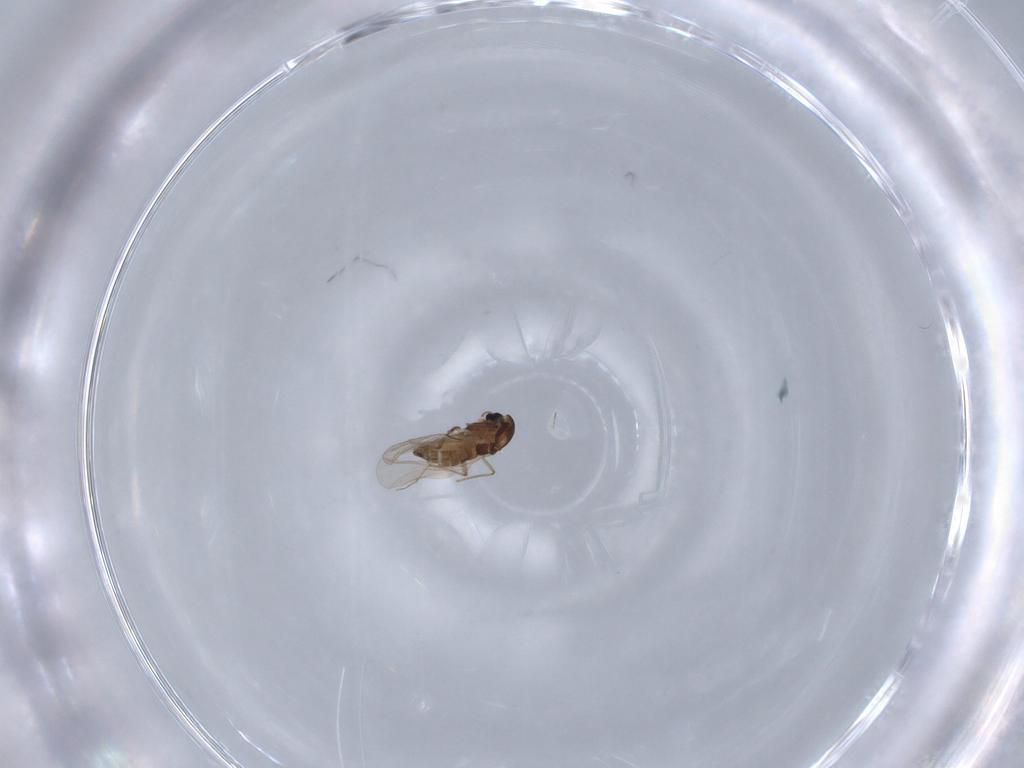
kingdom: Animalia
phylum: Arthropoda
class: Insecta
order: Diptera
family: Chironomidae
